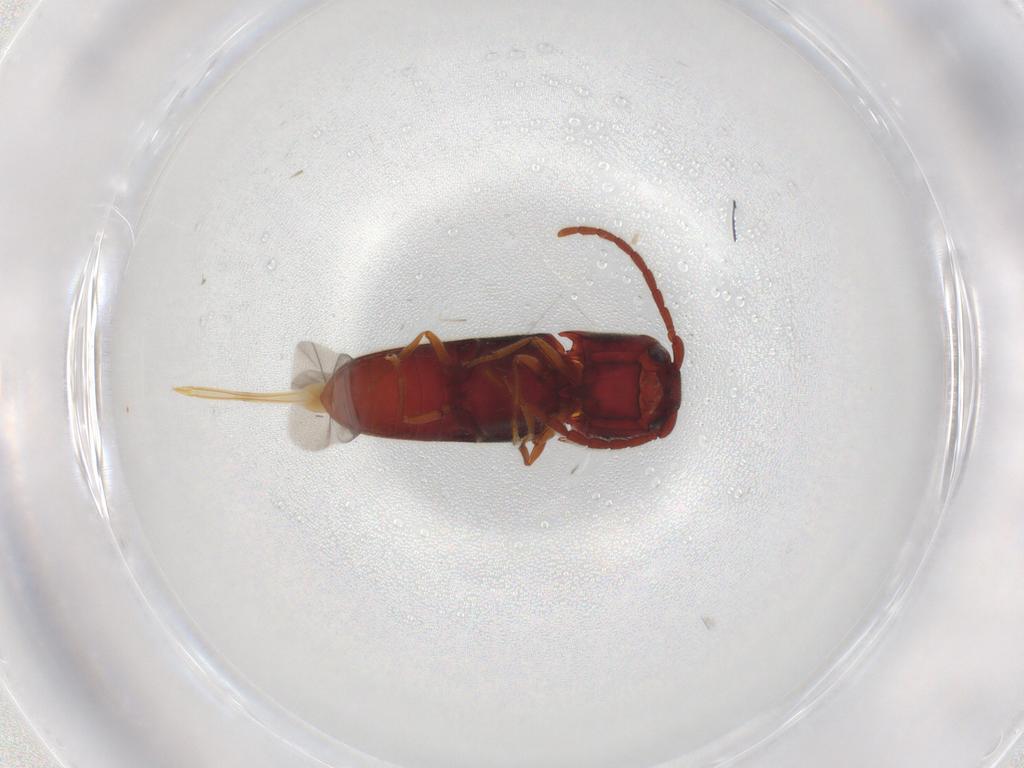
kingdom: Animalia
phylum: Arthropoda
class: Insecta
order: Coleoptera
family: Eucnemidae
